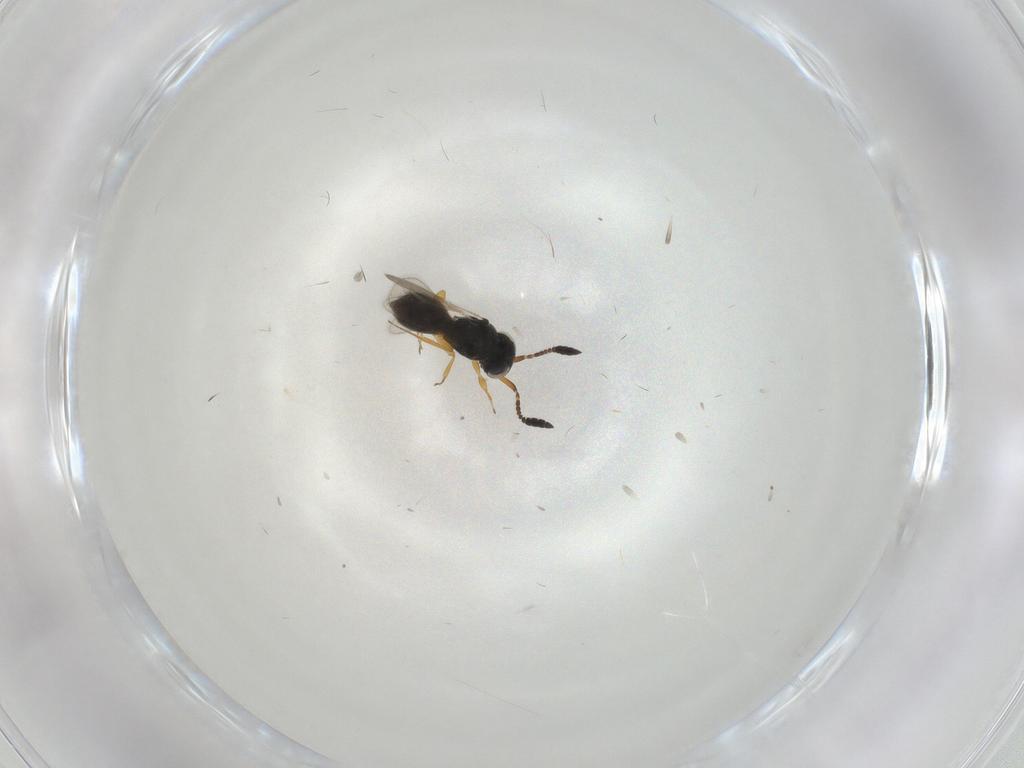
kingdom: Animalia
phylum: Arthropoda
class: Insecta
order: Hymenoptera
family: Scelionidae
